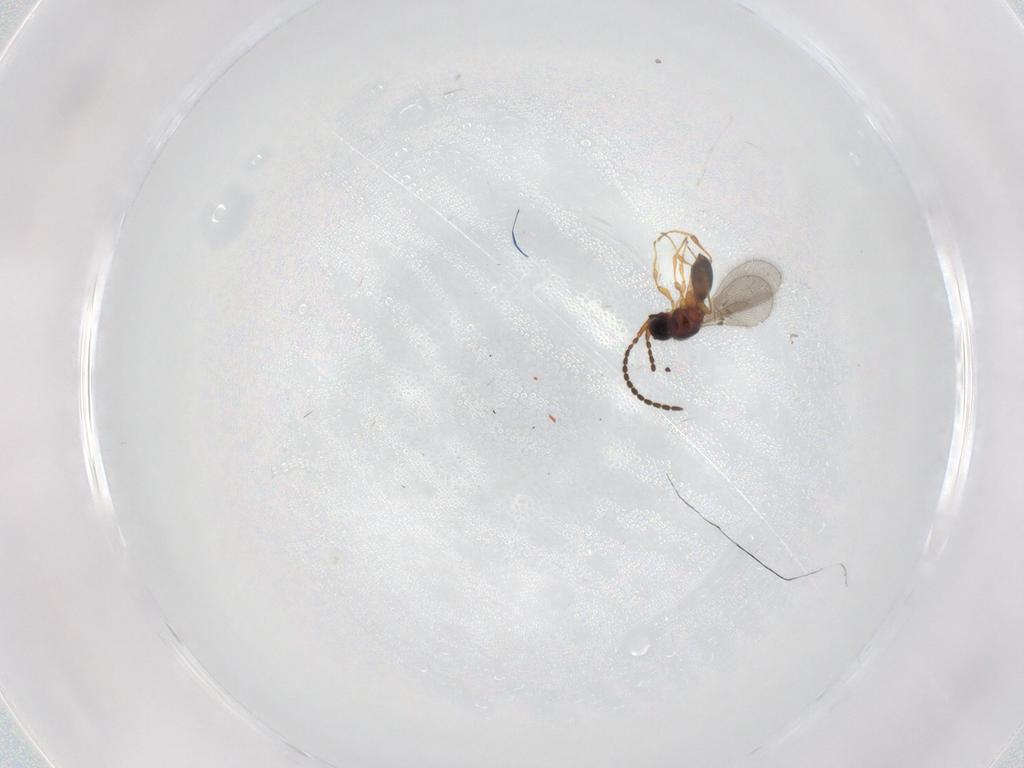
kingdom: Animalia
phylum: Arthropoda
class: Insecta
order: Hymenoptera
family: Diapriidae
